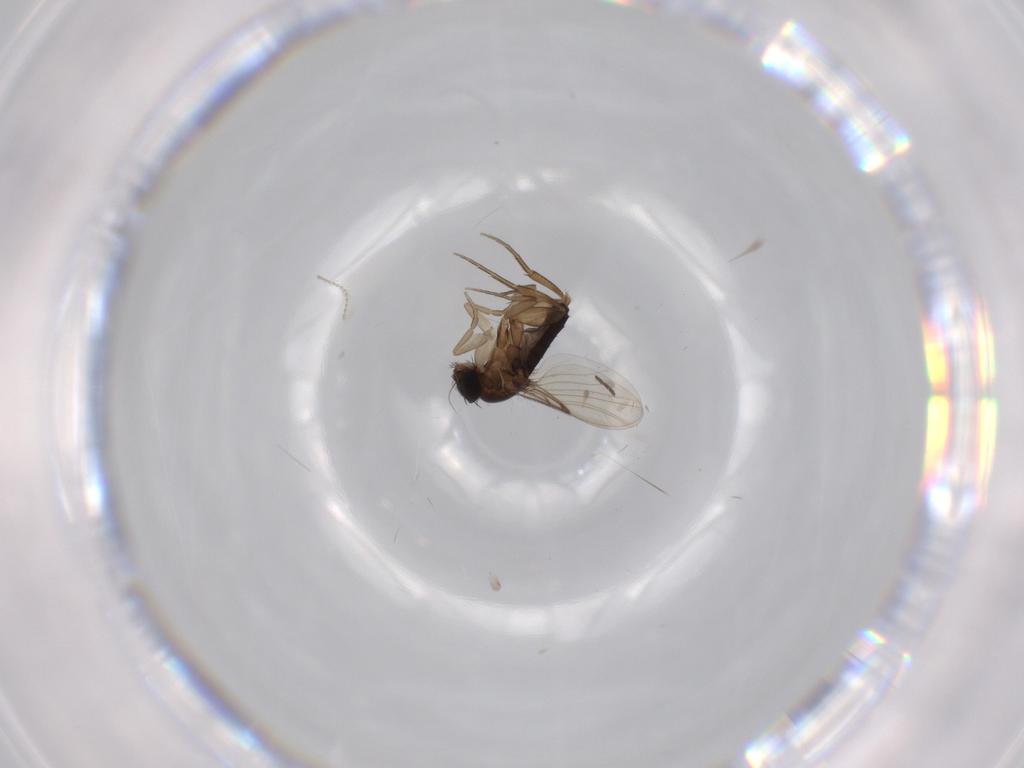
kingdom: Animalia
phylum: Arthropoda
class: Insecta
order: Diptera
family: Ceratopogonidae
